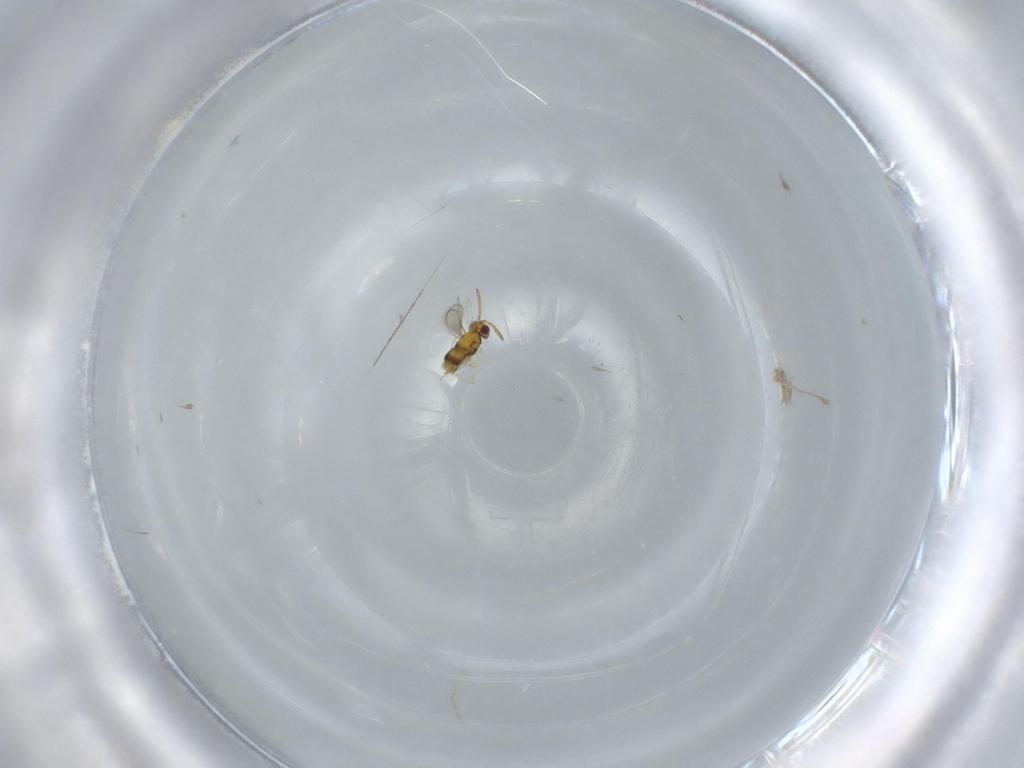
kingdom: Animalia
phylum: Arthropoda
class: Insecta
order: Hymenoptera
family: Aphelinidae
